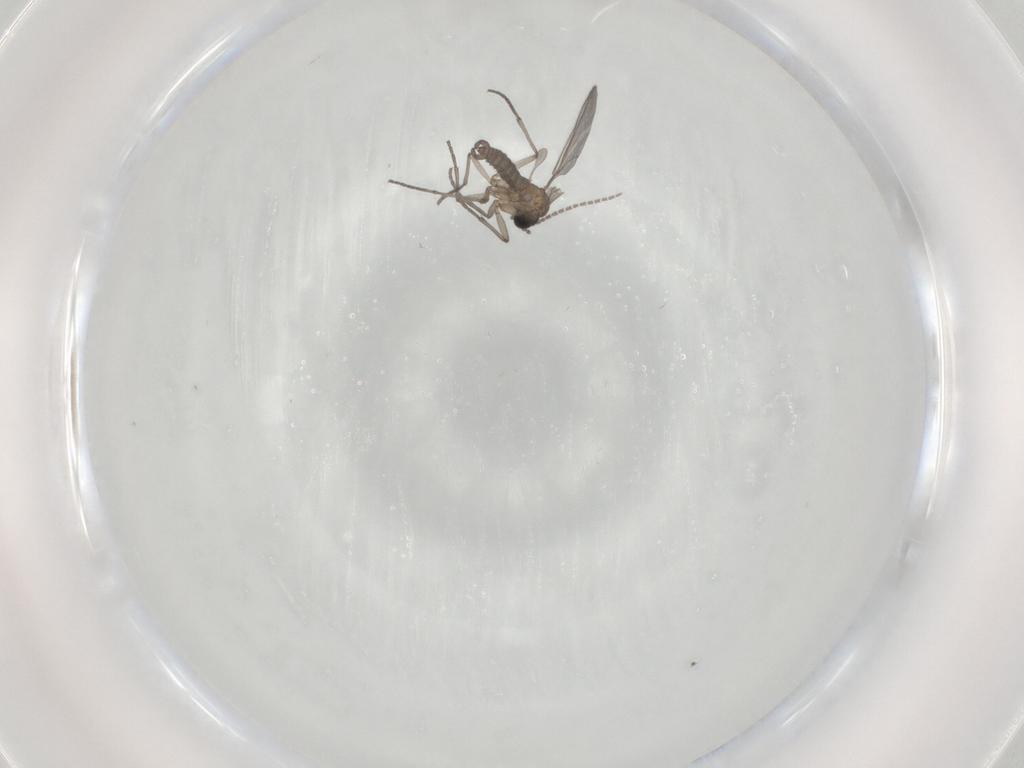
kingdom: Animalia
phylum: Arthropoda
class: Insecta
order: Diptera
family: Sciaridae
